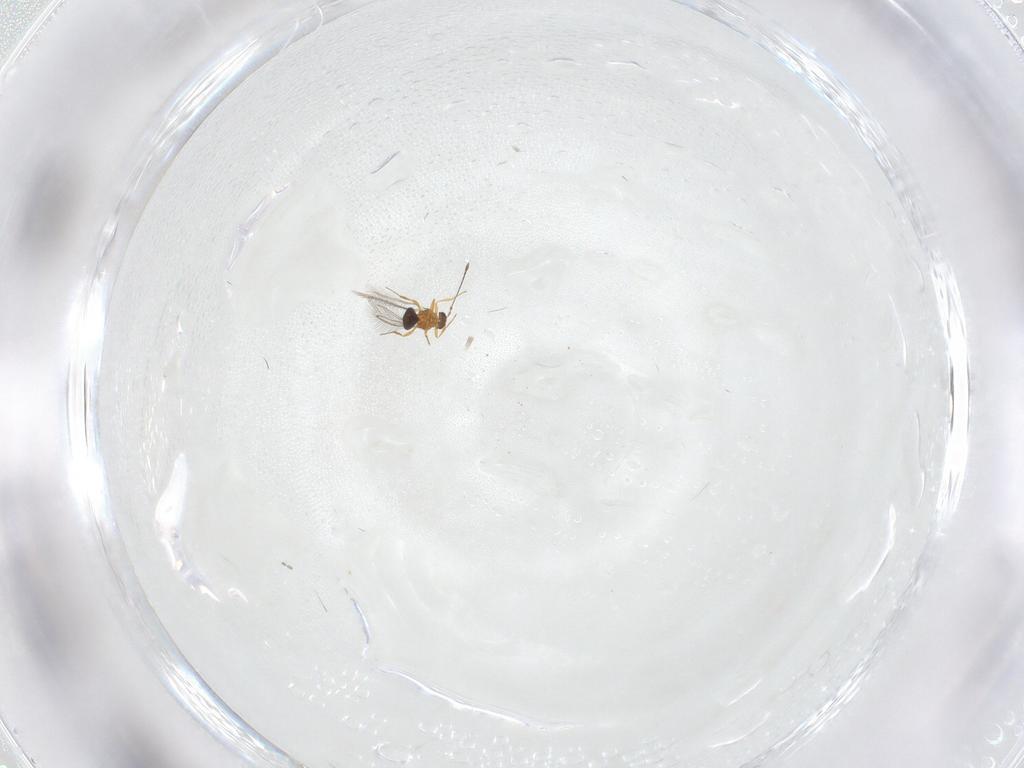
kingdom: Animalia
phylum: Arthropoda
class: Insecta
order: Hymenoptera
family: Mymaridae
